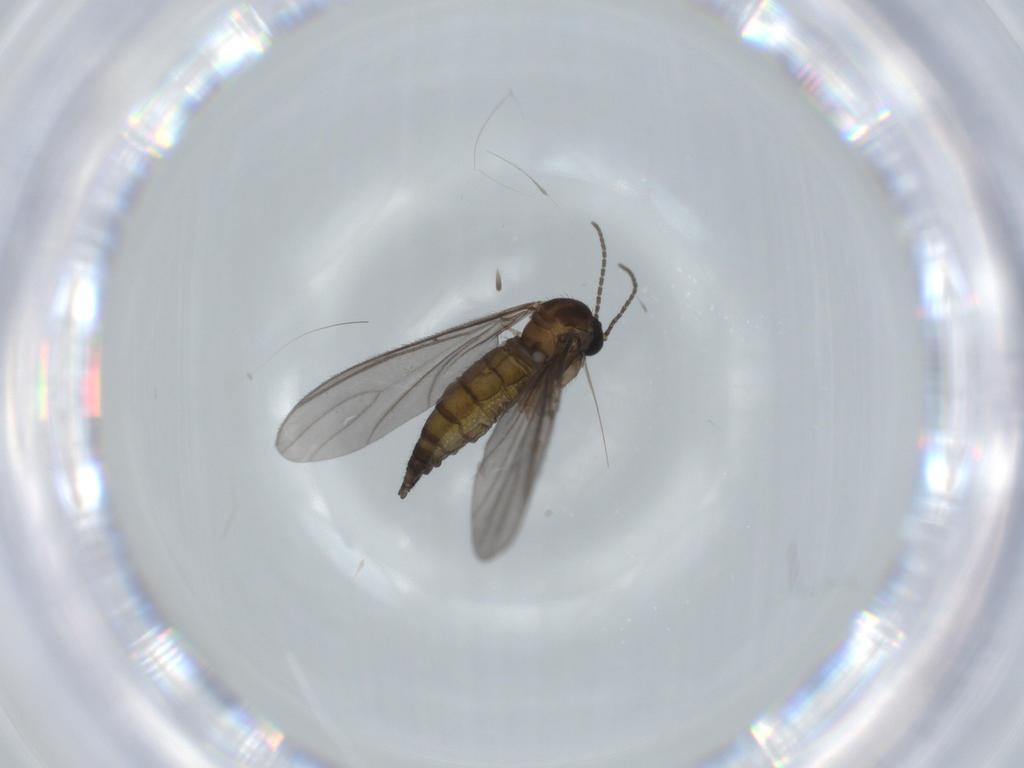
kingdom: Animalia
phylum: Arthropoda
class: Insecta
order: Diptera
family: Sciaridae
